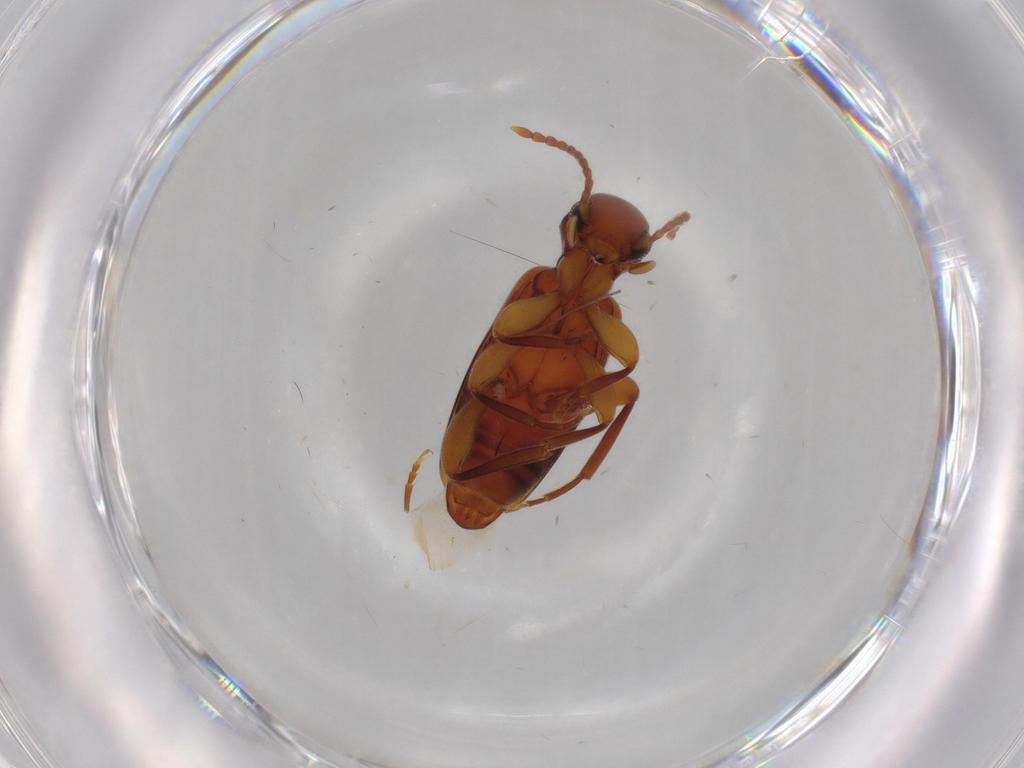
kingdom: Animalia
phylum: Arthropoda
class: Insecta
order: Coleoptera
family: Anthicidae
